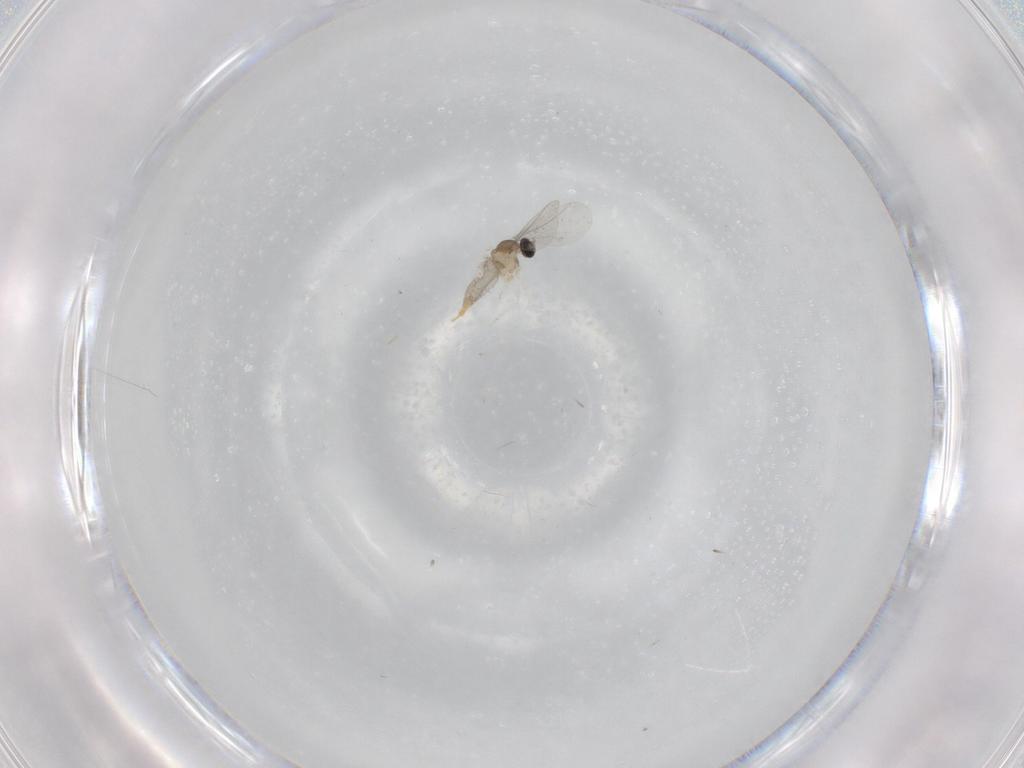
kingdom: Animalia
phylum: Arthropoda
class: Insecta
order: Diptera
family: Cecidomyiidae
